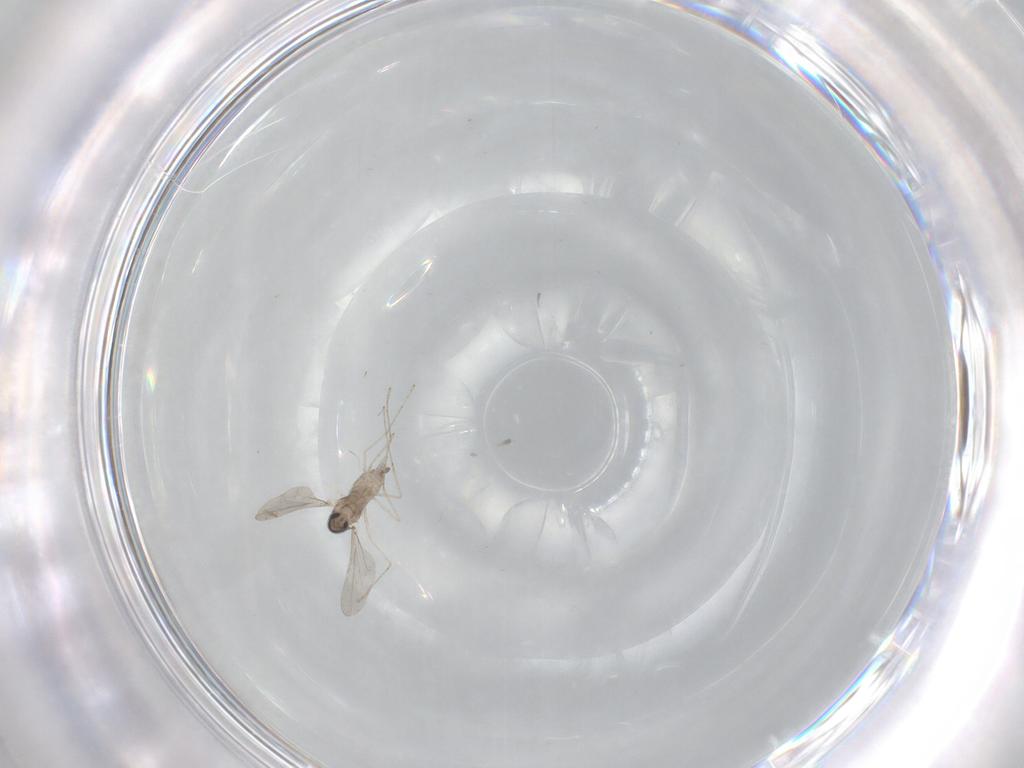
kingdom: Animalia
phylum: Arthropoda
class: Insecta
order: Diptera
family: Cecidomyiidae
